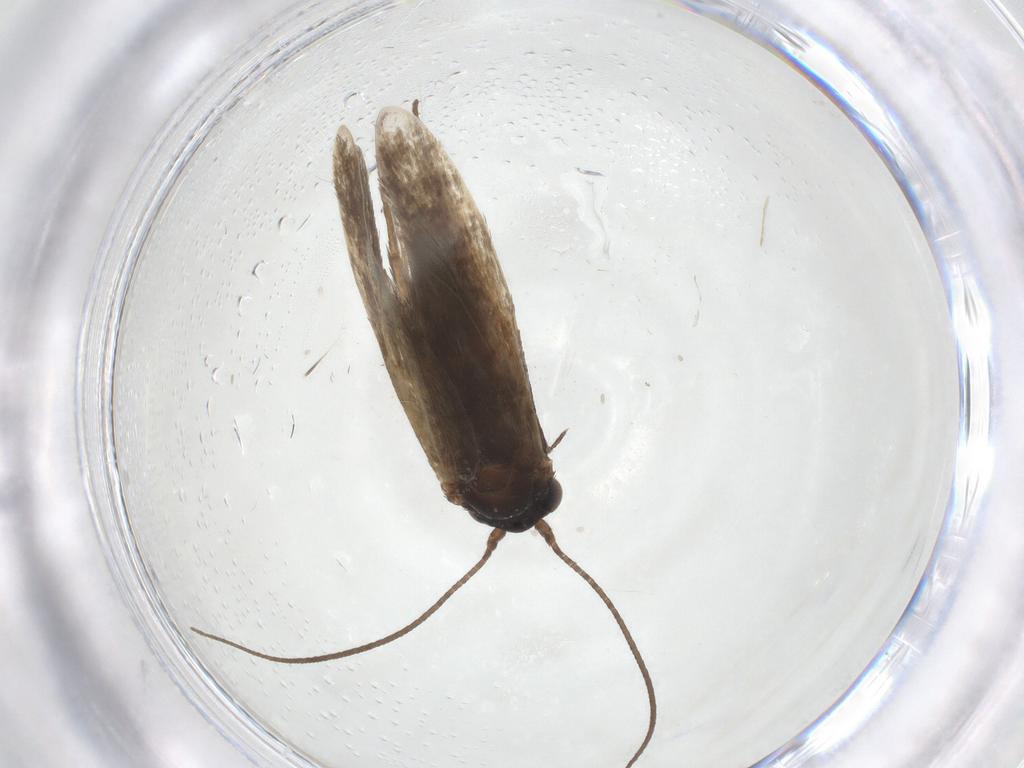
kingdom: Animalia
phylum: Arthropoda
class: Insecta
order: Lepidoptera
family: Adelidae
